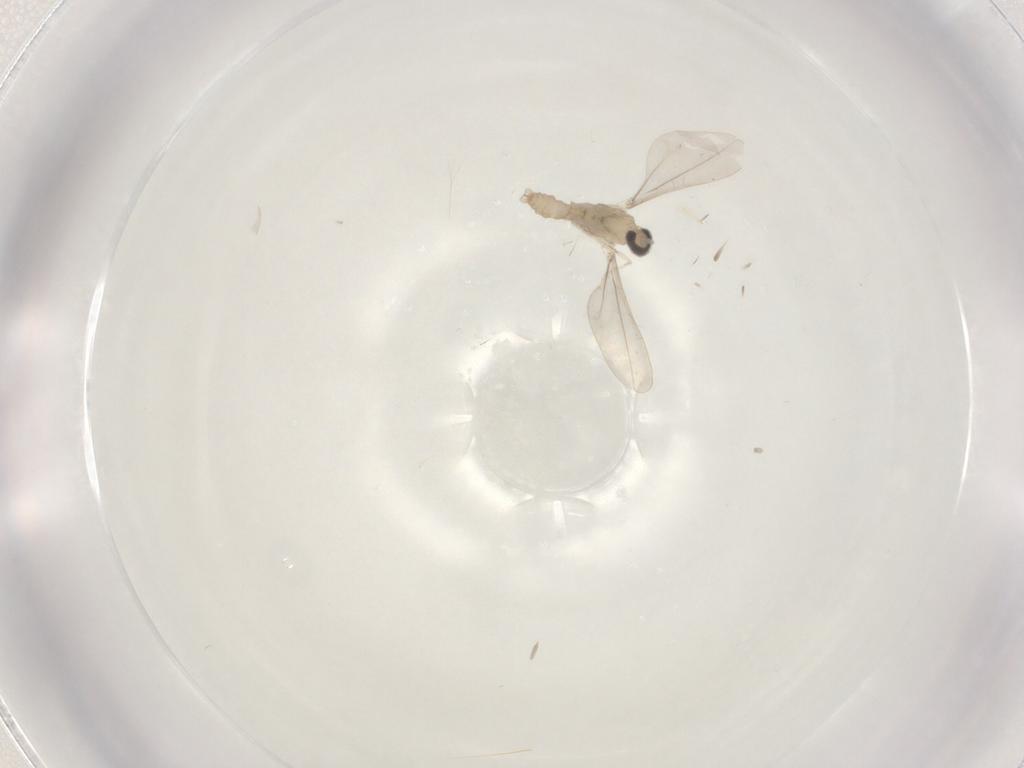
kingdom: Animalia
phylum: Arthropoda
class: Insecta
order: Diptera
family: Cecidomyiidae
